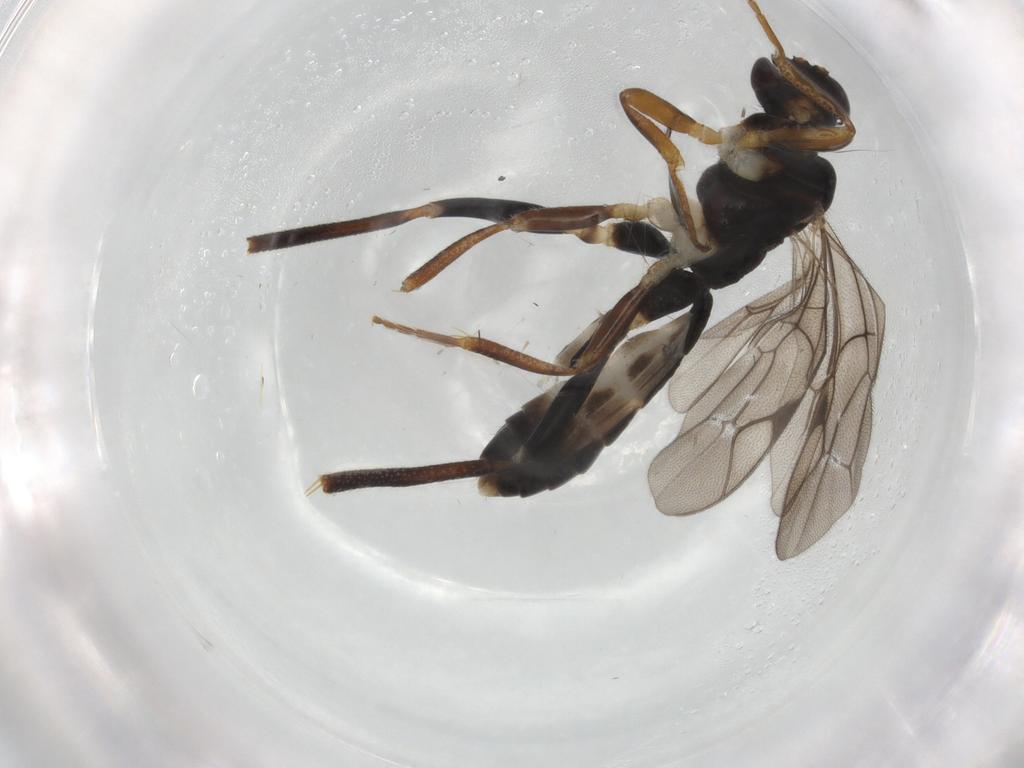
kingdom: Animalia
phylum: Arthropoda
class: Insecta
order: Hymenoptera
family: Ichneumonidae
